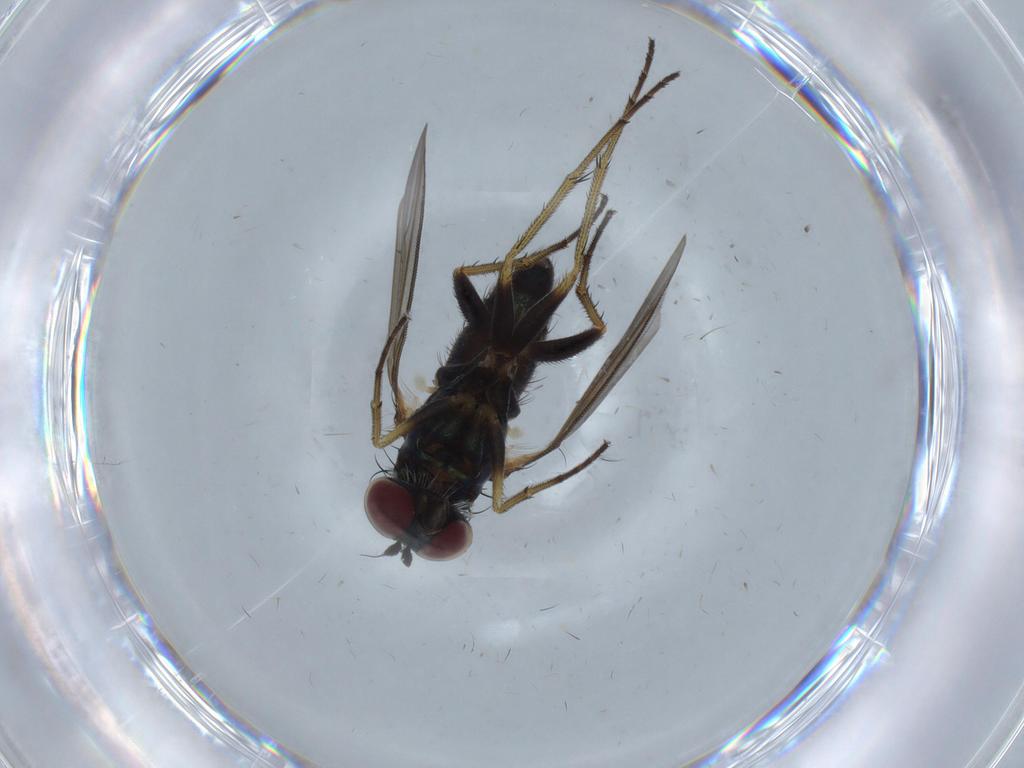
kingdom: Animalia
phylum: Arthropoda
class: Insecta
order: Diptera
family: Dolichopodidae
